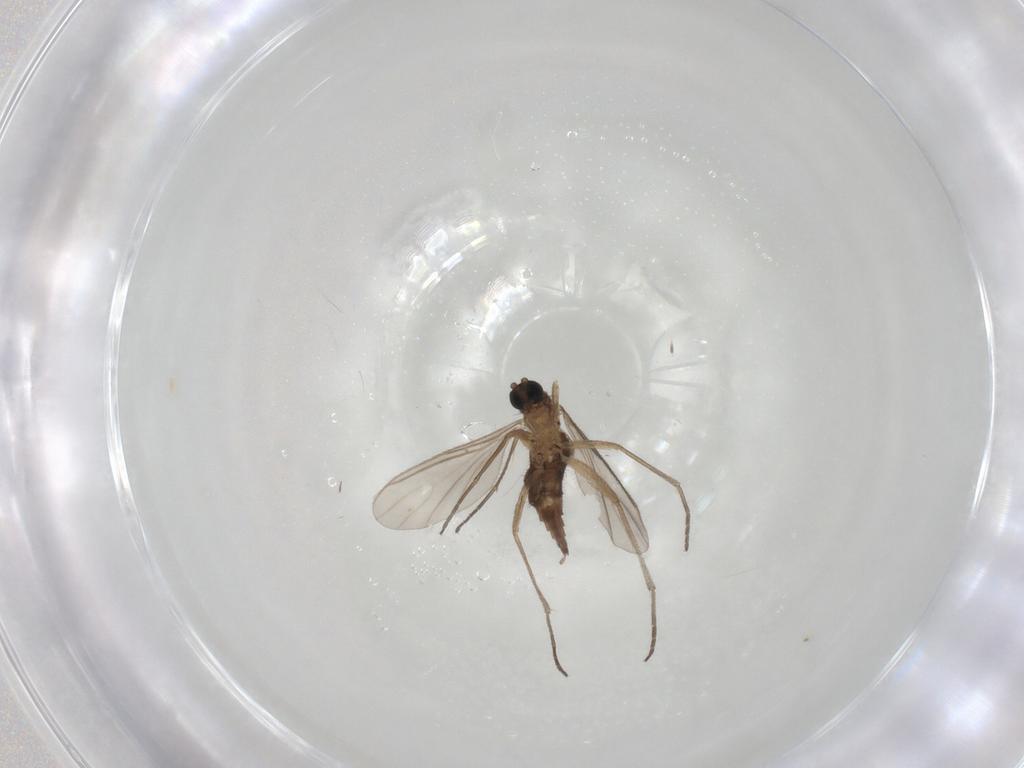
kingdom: Animalia
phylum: Arthropoda
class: Insecta
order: Diptera
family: Sciaridae
